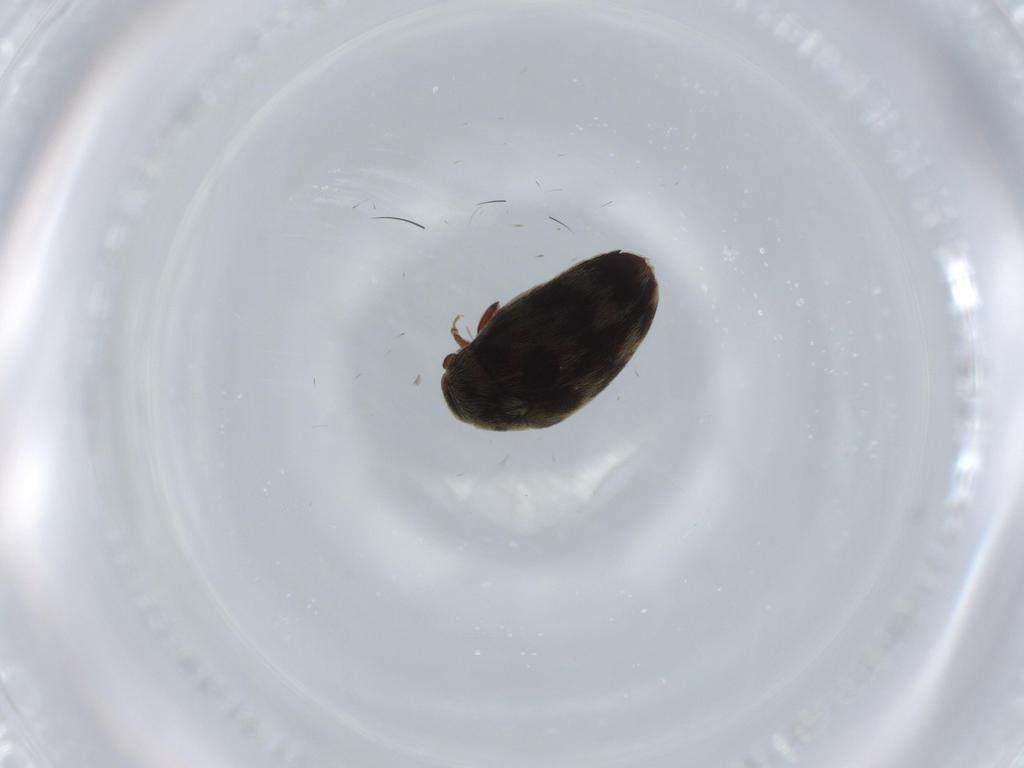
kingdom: Animalia
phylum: Arthropoda
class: Insecta
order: Coleoptera
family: Dermestidae
